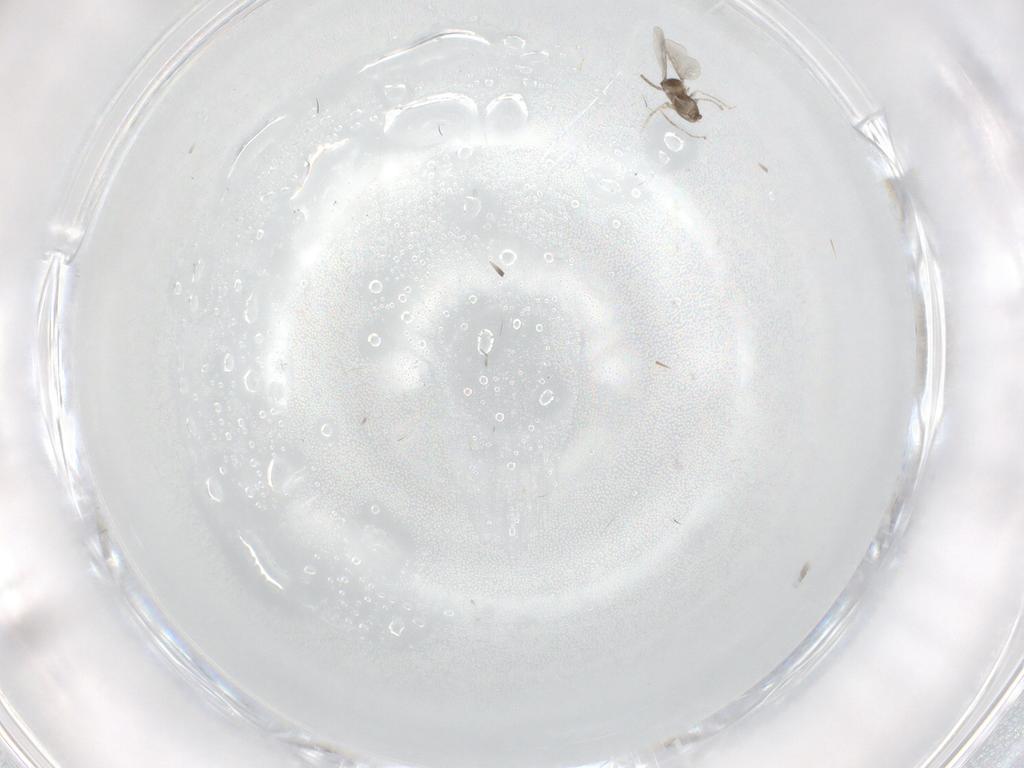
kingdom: Animalia
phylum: Arthropoda
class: Insecta
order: Diptera
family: Cecidomyiidae
